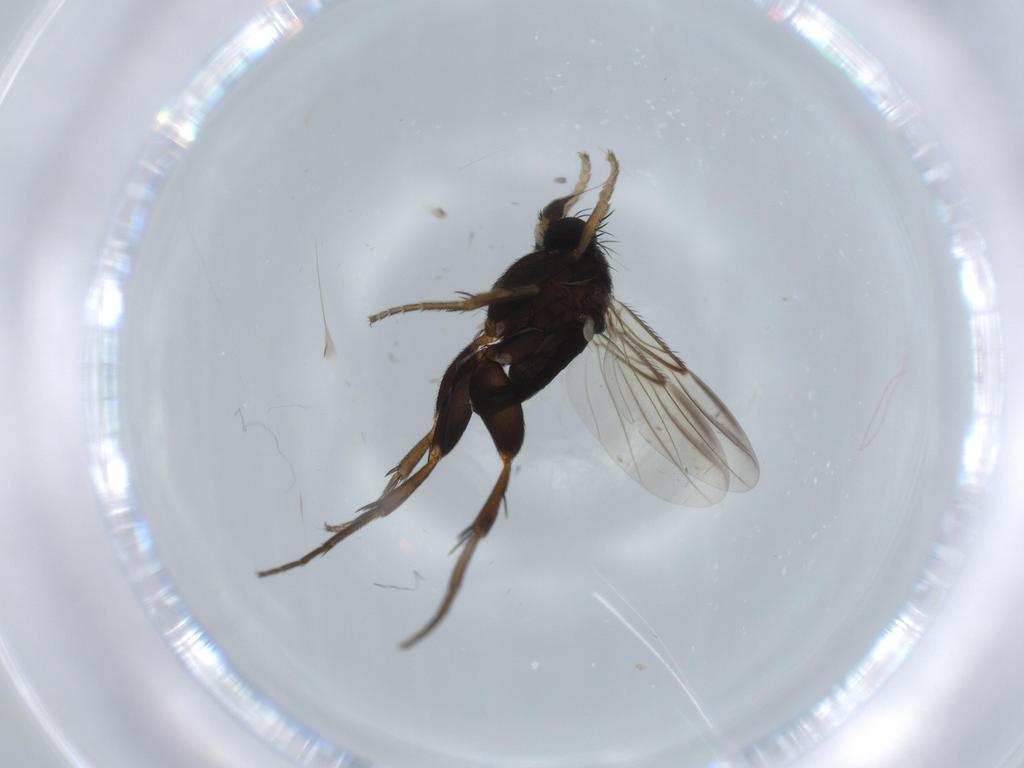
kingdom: Animalia
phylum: Arthropoda
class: Insecta
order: Diptera
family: Phoridae
